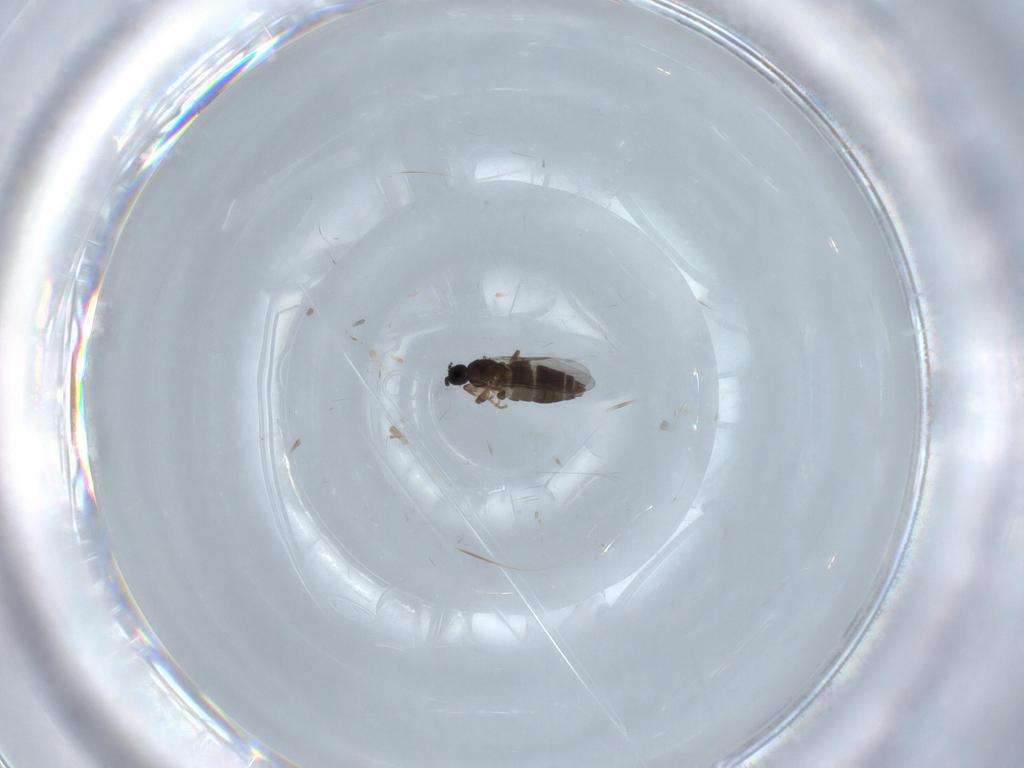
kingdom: Animalia
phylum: Arthropoda
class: Insecta
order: Diptera
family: Scatopsidae
